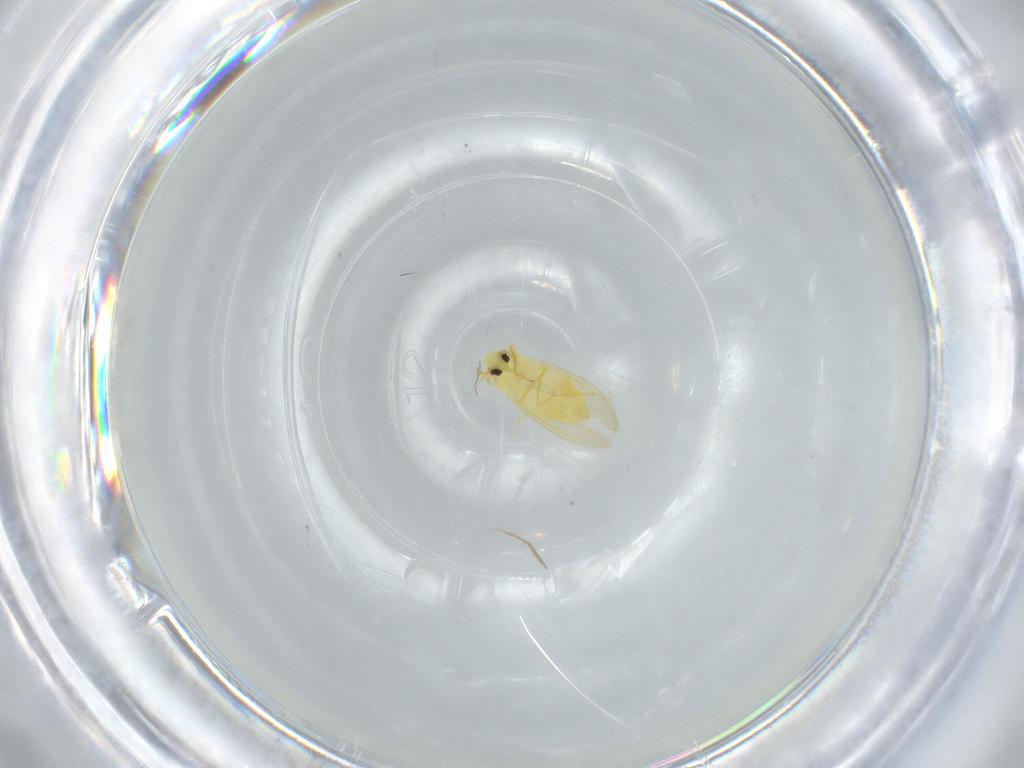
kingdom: Animalia
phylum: Arthropoda
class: Insecta
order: Hemiptera
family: Aleyrodidae
